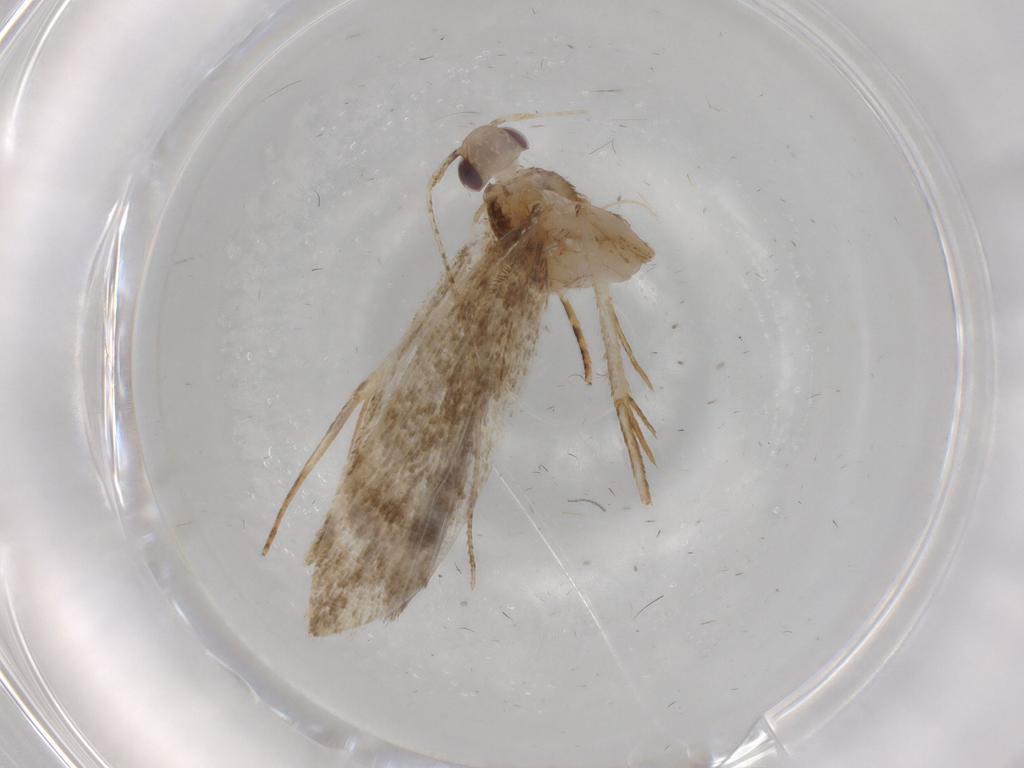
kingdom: Animalia
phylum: Arthropoda
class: Insecta
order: Lepidoptera
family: Gelechiidae
